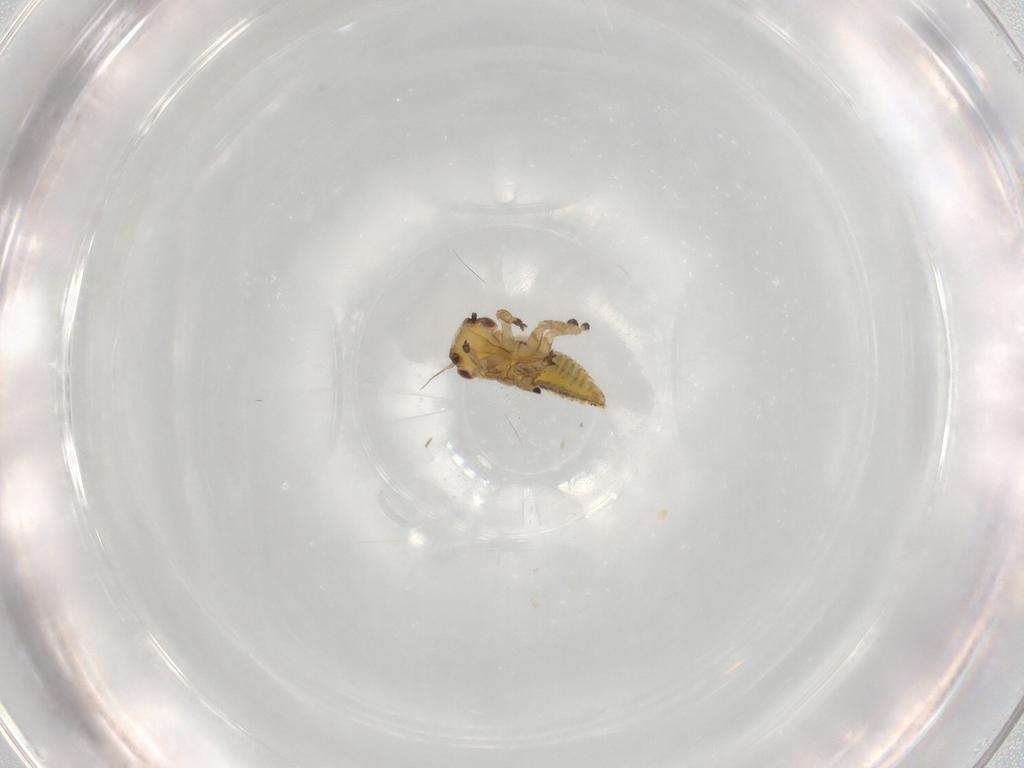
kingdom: Animalia
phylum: Arthropoda
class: Insecta
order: Hemiptera
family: Cicadellidae
